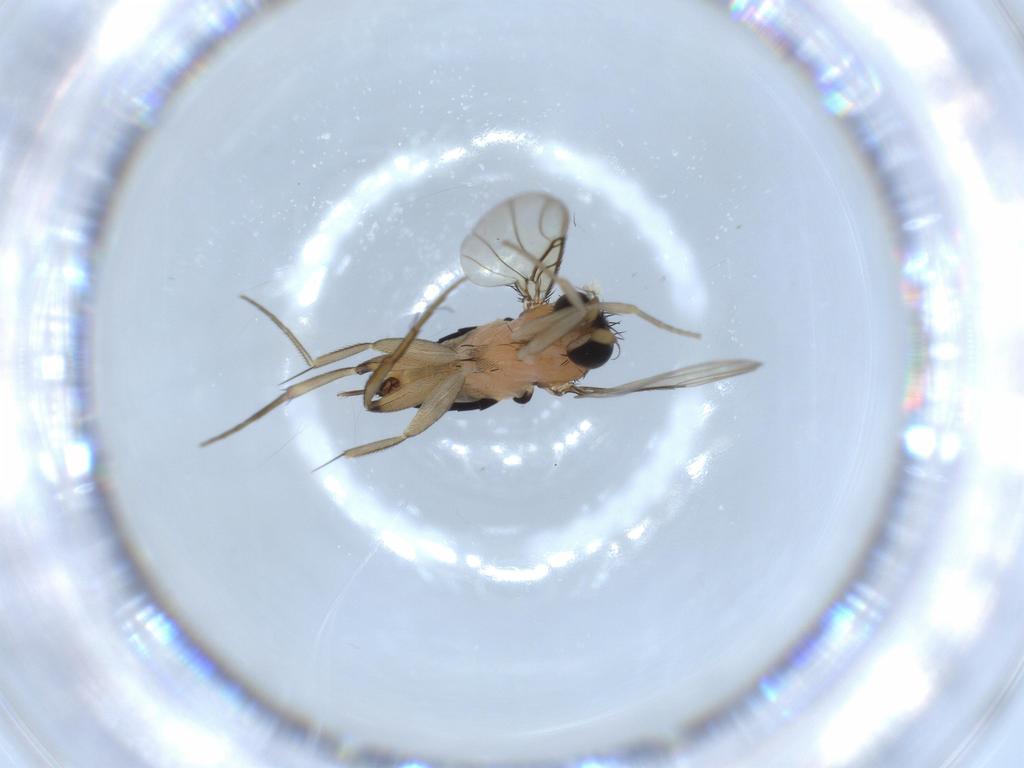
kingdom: Animalia
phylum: Arthropoda
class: Insecta
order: Diptera
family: Phoridae
